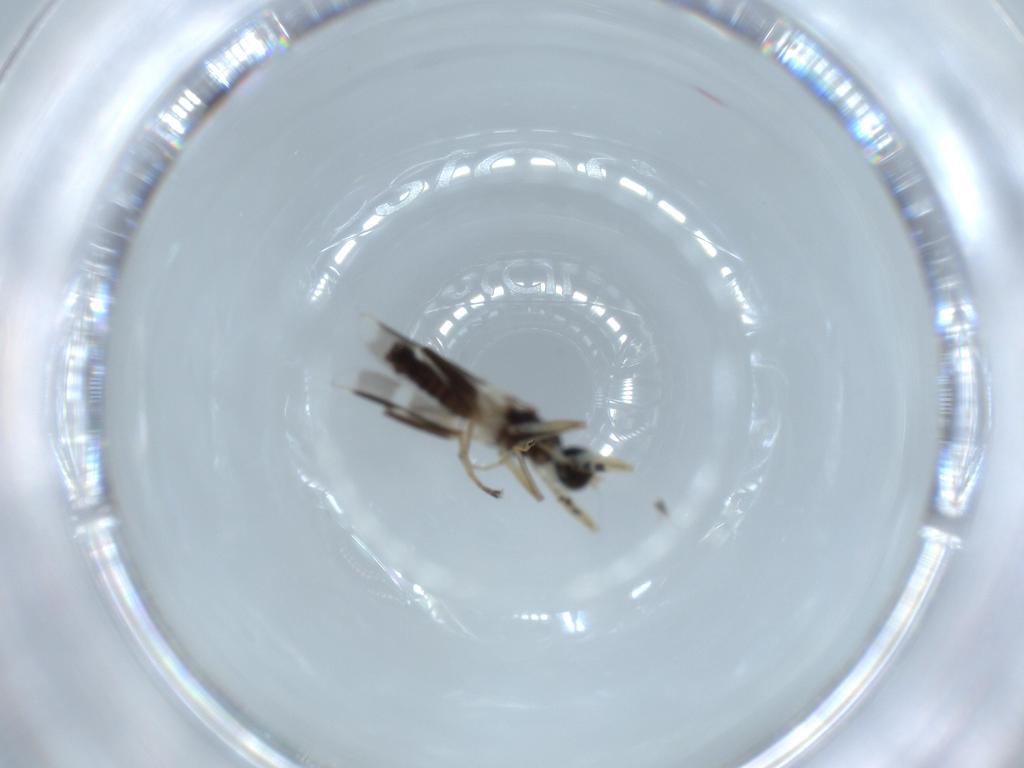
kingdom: Animalia
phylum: Arthropoda
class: Insecta
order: Diptera
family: Hybotidae
